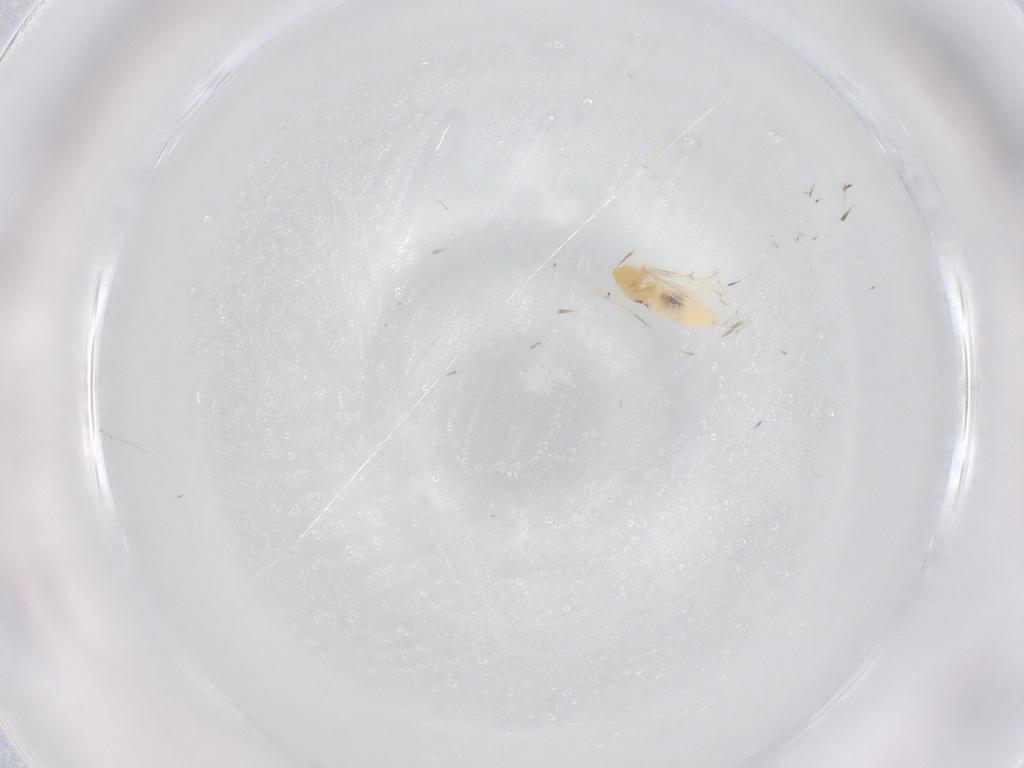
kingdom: Animalia
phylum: Arthropoda
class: Insecta
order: Diptera
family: Cecidomyiidae
